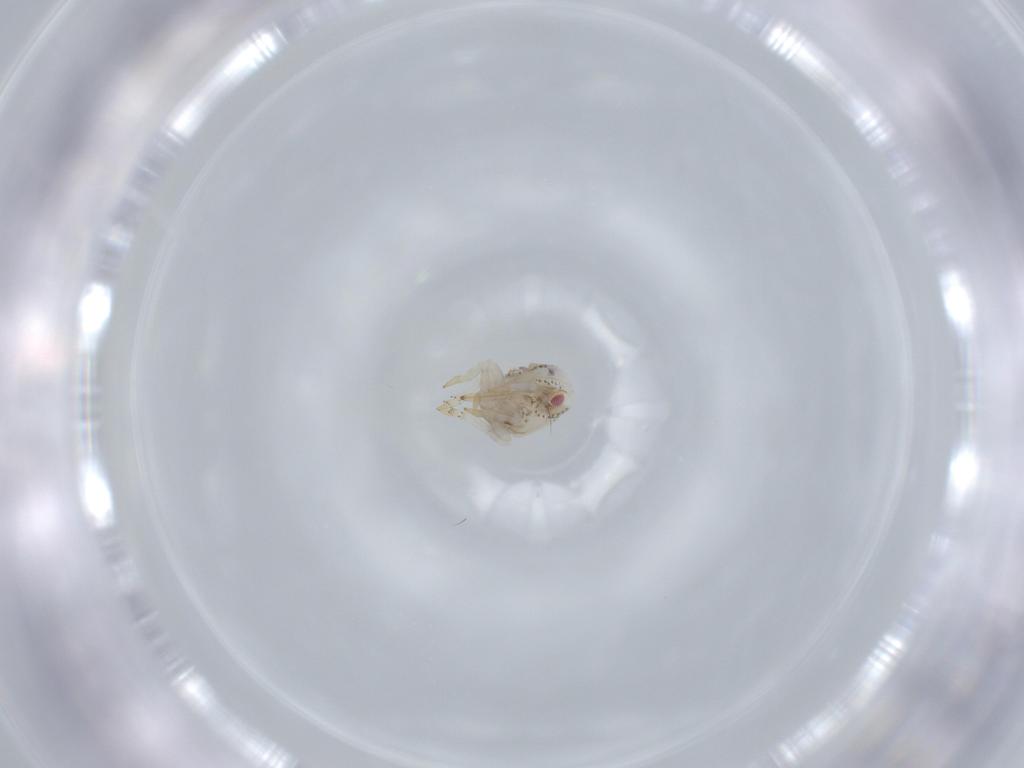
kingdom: Animalia
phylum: Arthropoda
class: Insecta
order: Hemiptera
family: Acanaloniidae
